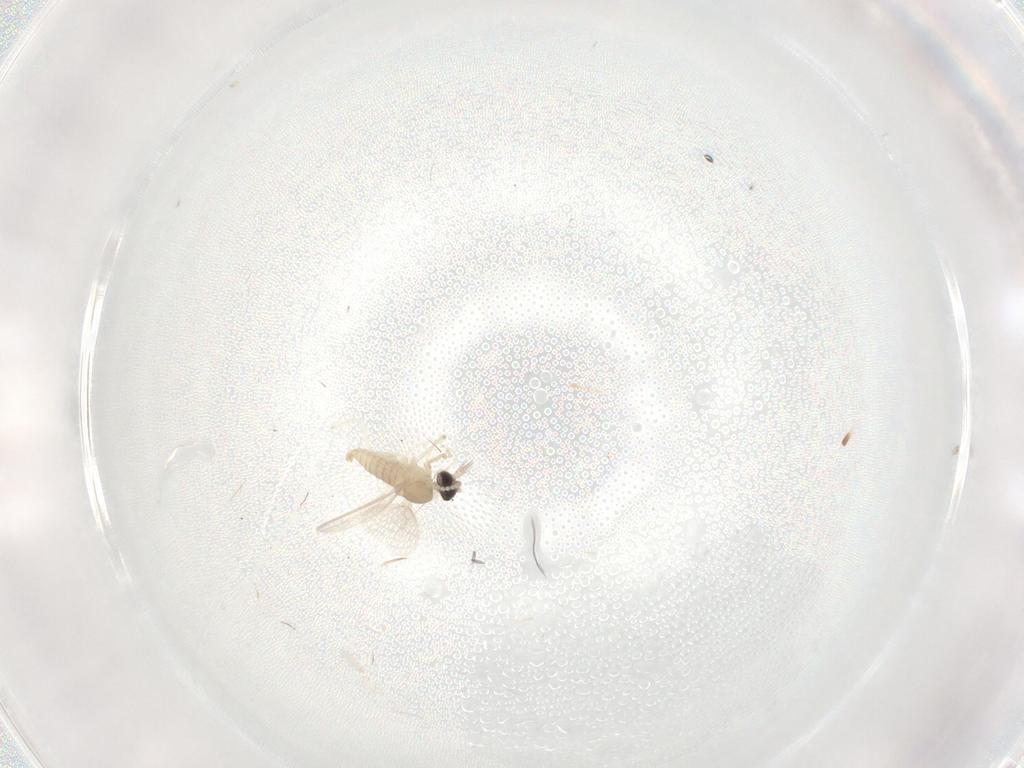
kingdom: Animalia
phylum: Arthropoda
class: Insecta
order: Diptera
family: Cecidomyiidae
